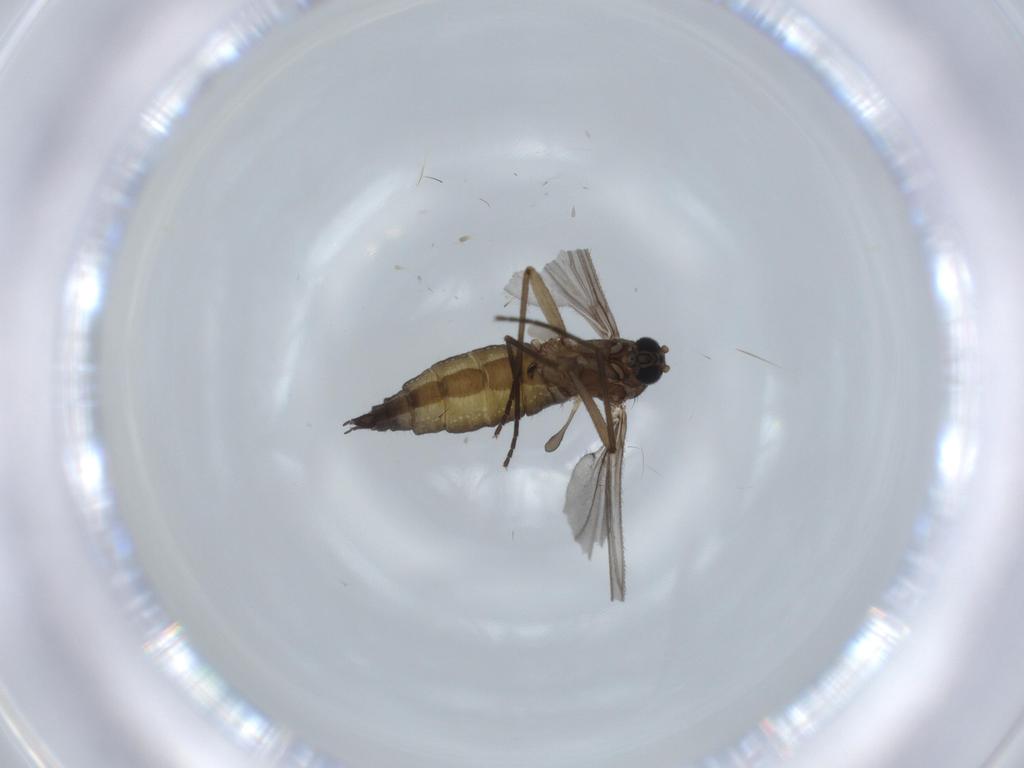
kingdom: Animalia
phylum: Arthropoda
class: Insecta
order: Diptera
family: Sciaridae
